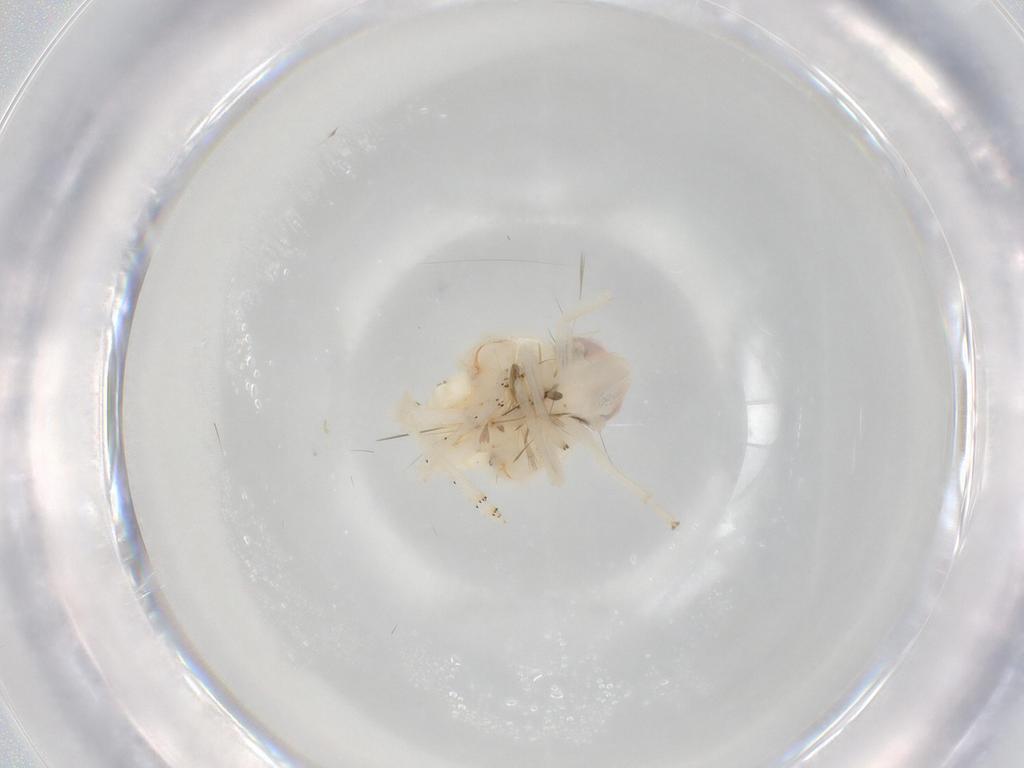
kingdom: Animalia
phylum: Arthropoda
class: Insecta
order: Hemiptera
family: Nogodinidae
